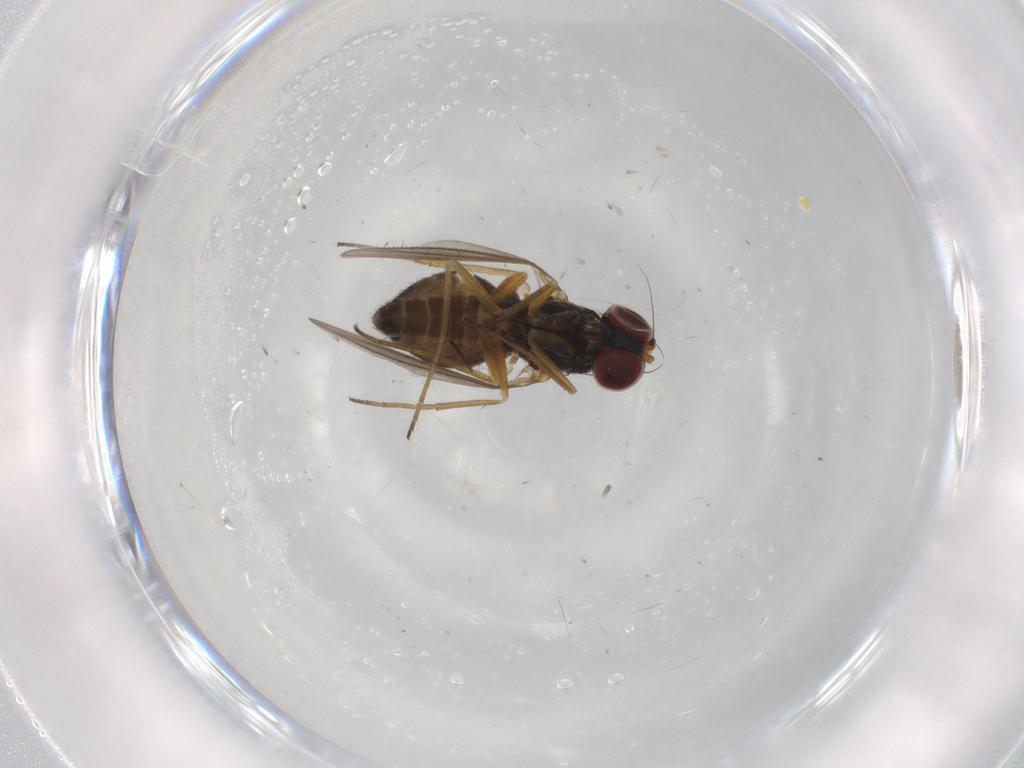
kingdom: Animalia
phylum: Arthropoda
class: Insecta
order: Diptera
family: Dolichopodidae
